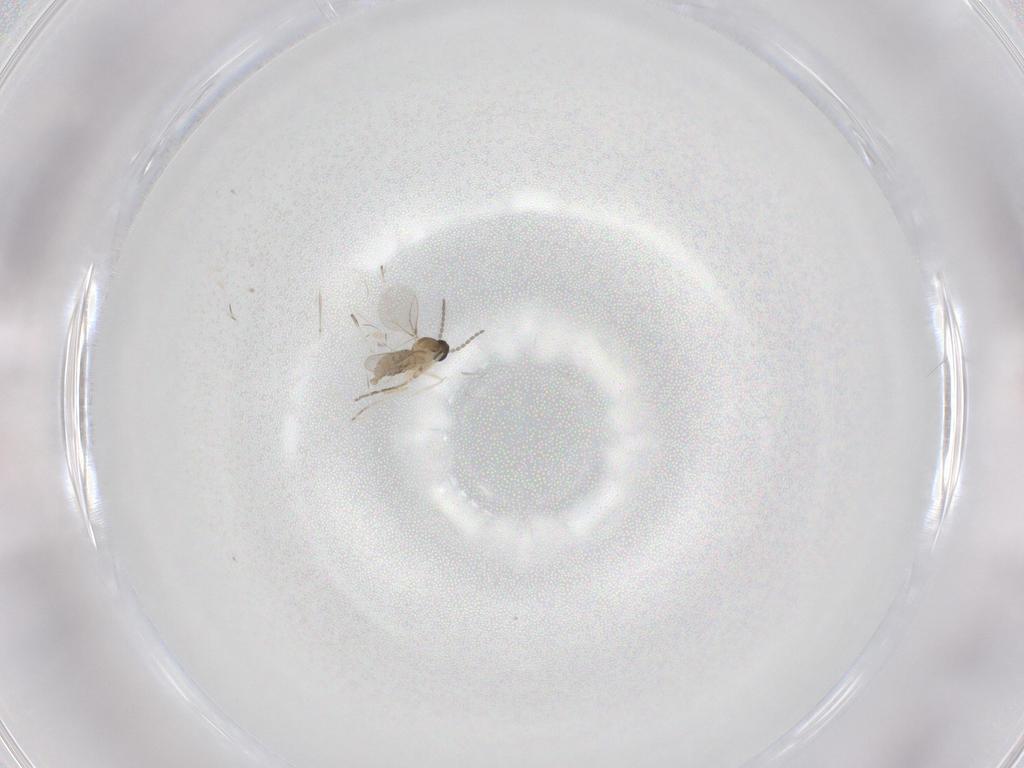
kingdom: Animalia
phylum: Arthropoda
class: Insecta
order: Diptera
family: Cecidomyiidae
